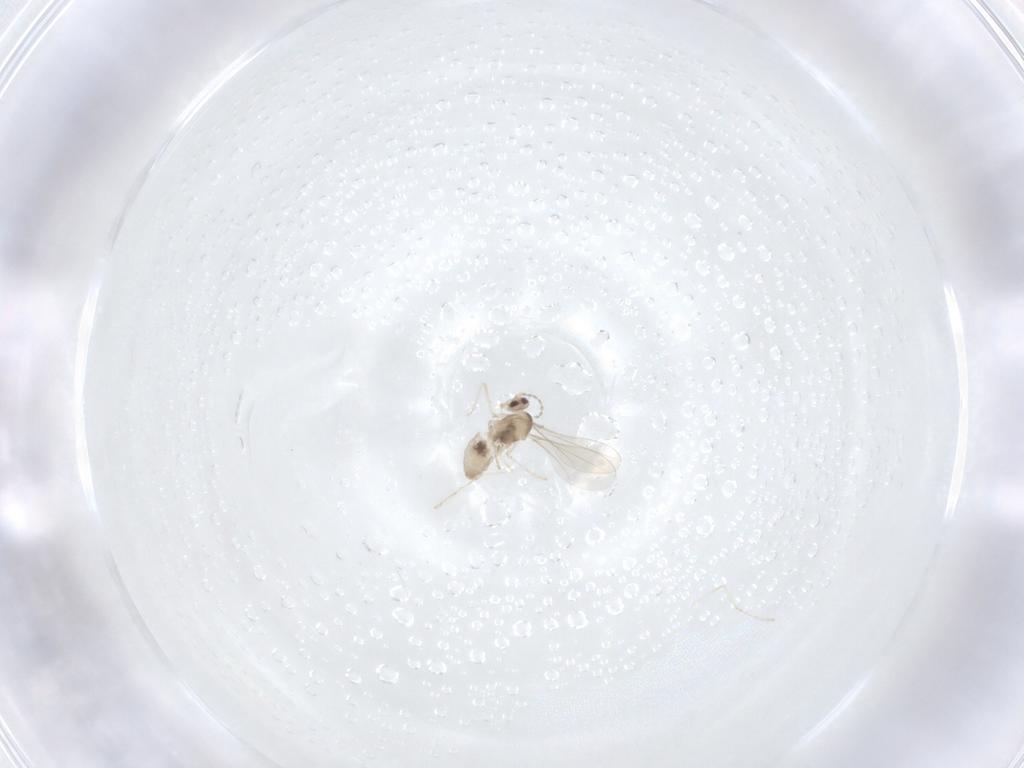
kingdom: Animalia
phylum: Arthropoda
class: Insecta
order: Diptera
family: Cecidomyiidae
